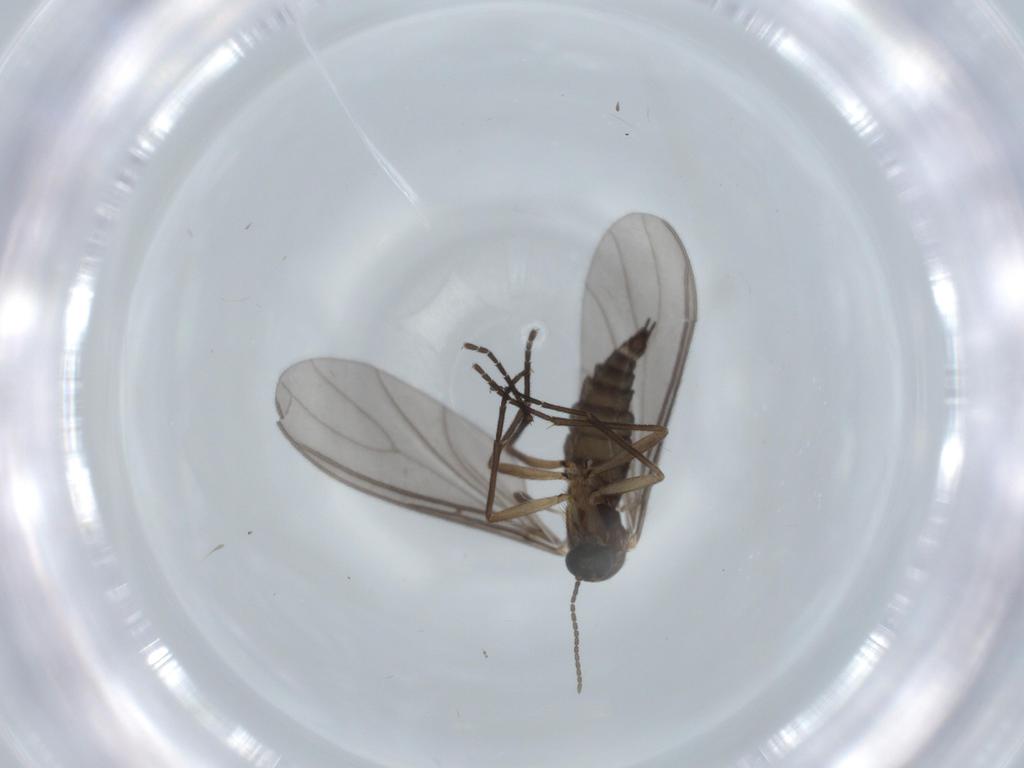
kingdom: Animalia
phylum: Arthropoda
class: Insecta
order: Diptera
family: Sciaridae
